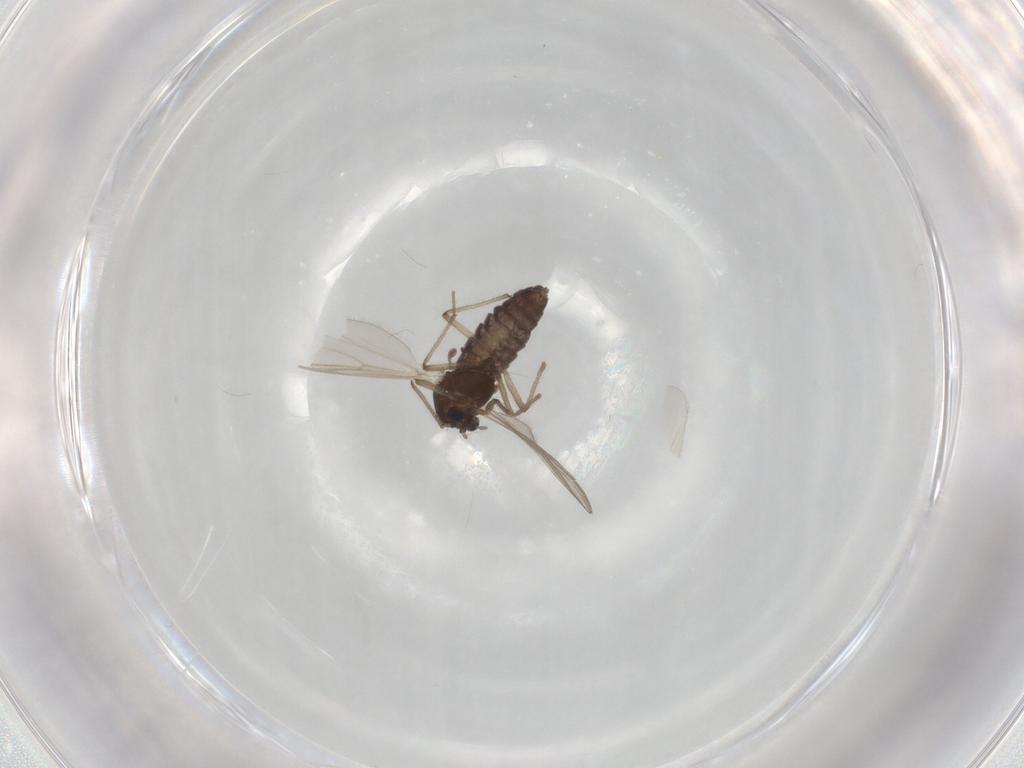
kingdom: Animalia
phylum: Arthropoda
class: Insecta
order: Diptera
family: Chironomidae
